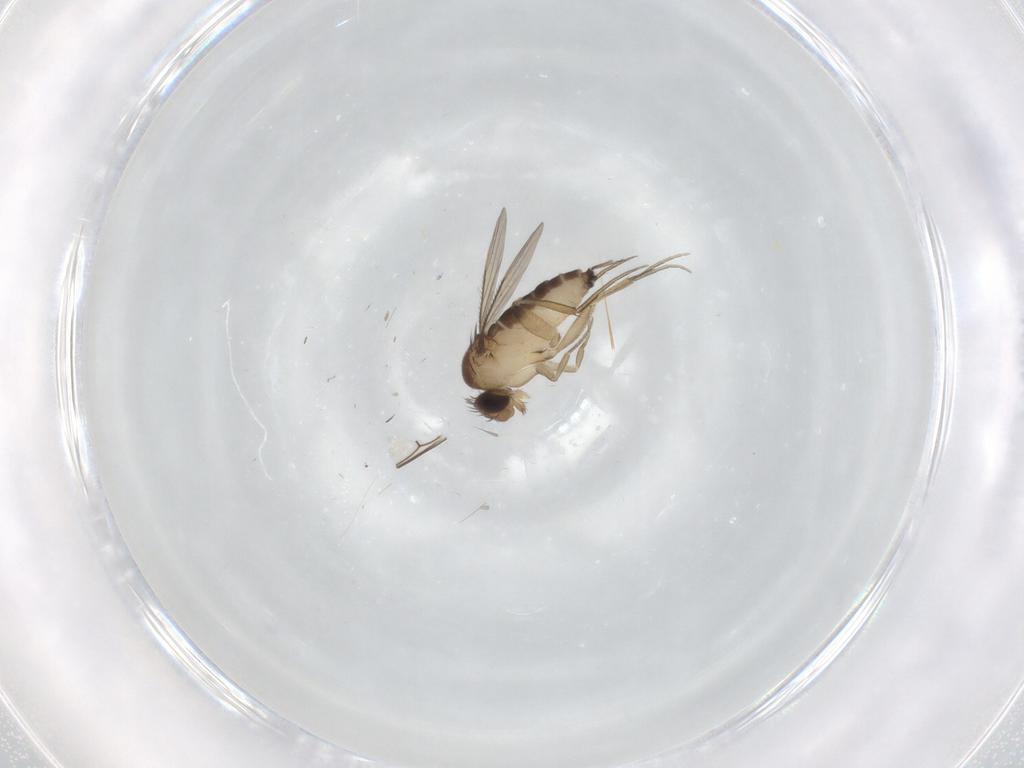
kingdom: Animalia
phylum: Arthropoda
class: Insecta
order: Diptera
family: Phoridae
